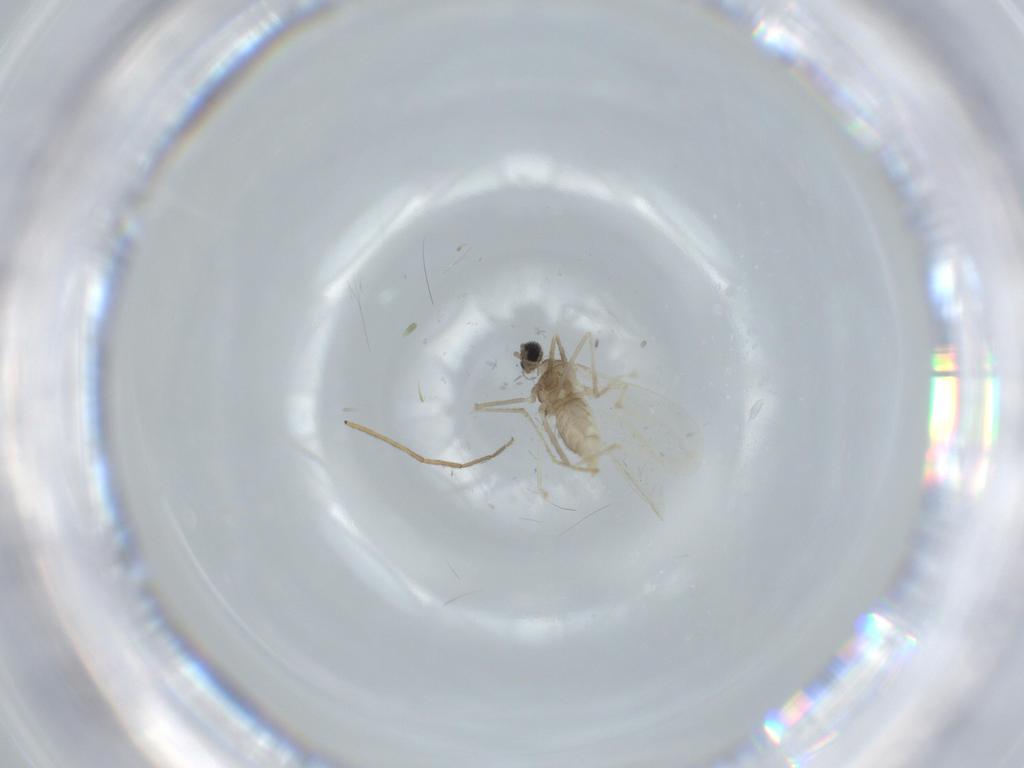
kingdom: Animalia
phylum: Arthropoda
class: Insecta
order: Diptera
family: Cecidomyiidae
